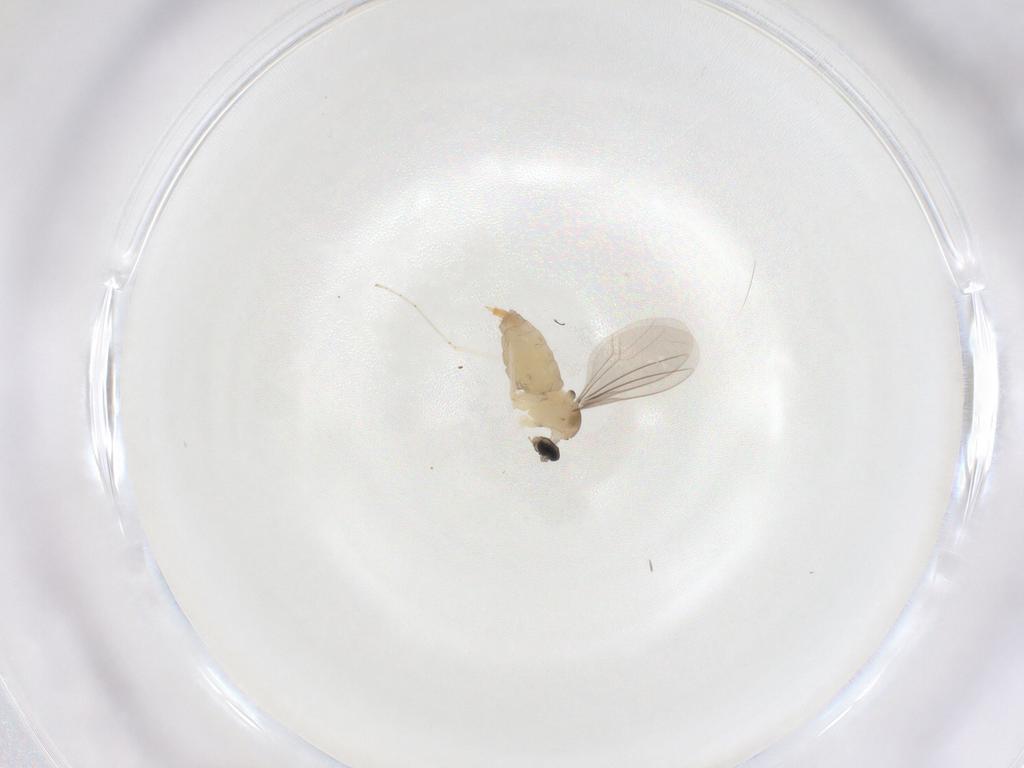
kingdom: Animalia
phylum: Arthropoda
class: Insecta
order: Diptera
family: Cecidomyiidae
